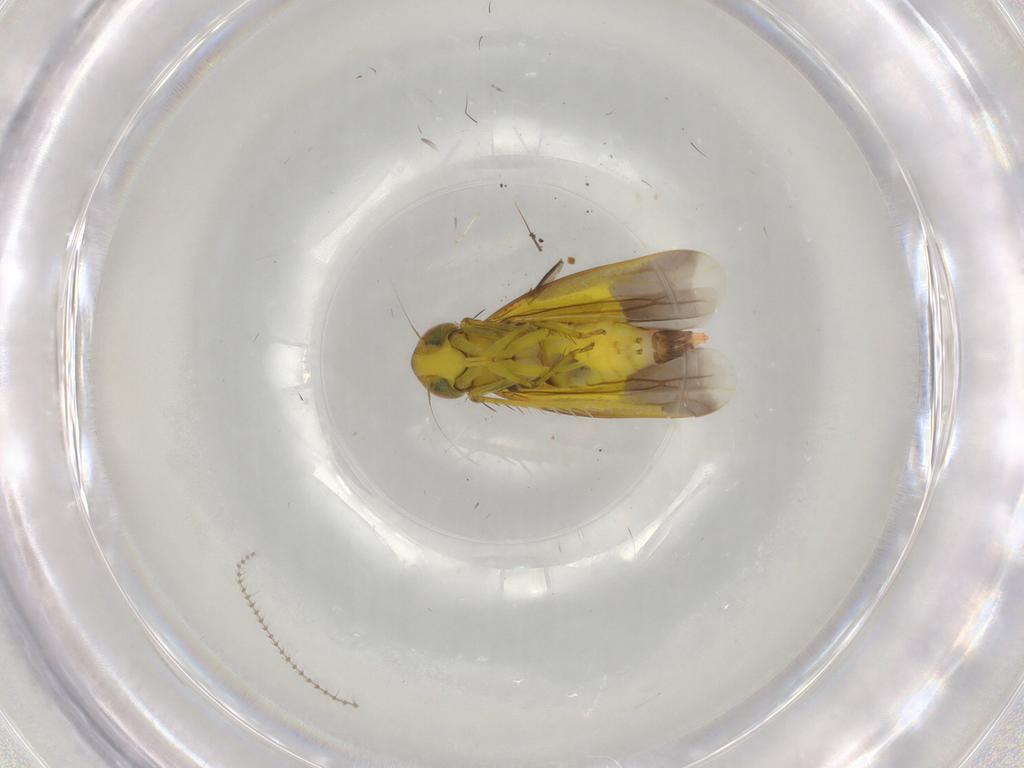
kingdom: Animalia
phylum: Arthropoda
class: Insecta
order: Hemiptera
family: Cicadellidae
